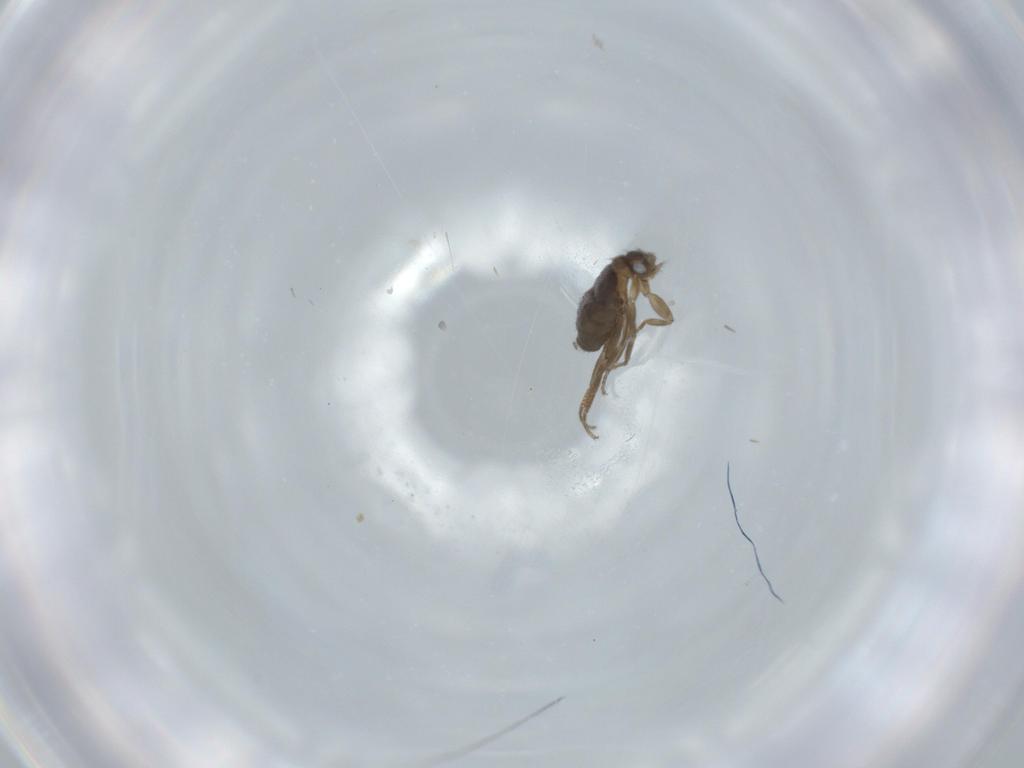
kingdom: Animalia
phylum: Arthropoda
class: Insecta
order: Diptera
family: Phoridae
